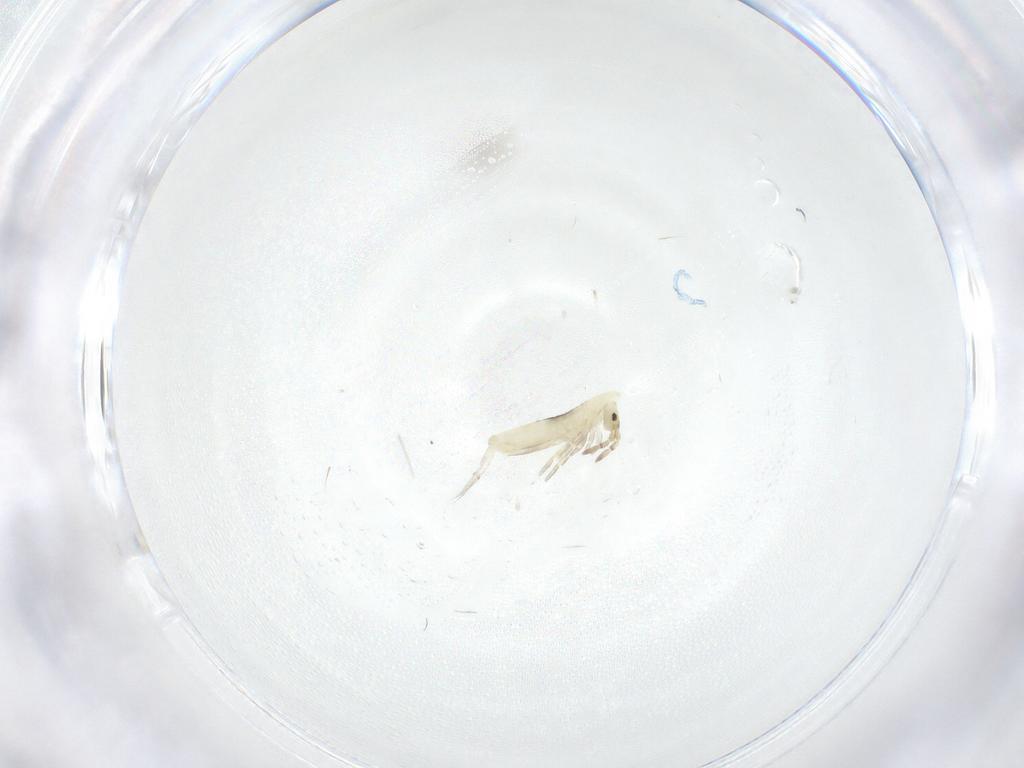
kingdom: Animalia
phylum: Arthropoda
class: Collembola
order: Entomobryomorpha
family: Entomobryidae
